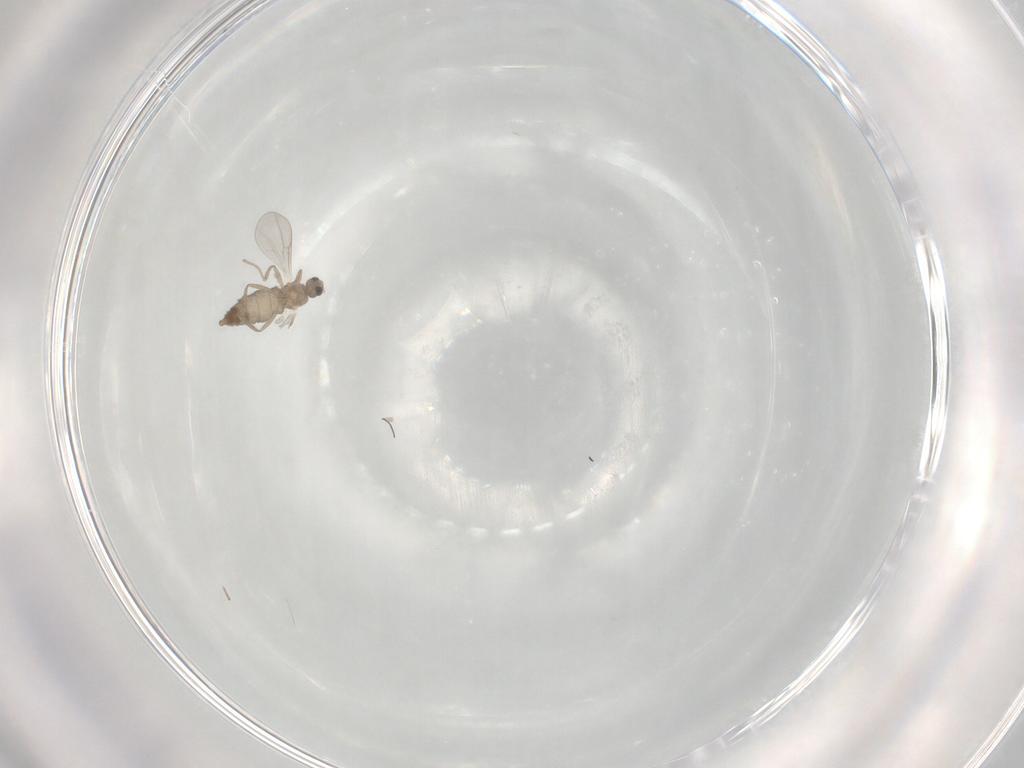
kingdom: Animalia
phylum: Arthropoda
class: Insecta
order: Diptera
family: Cecidomyiidae
